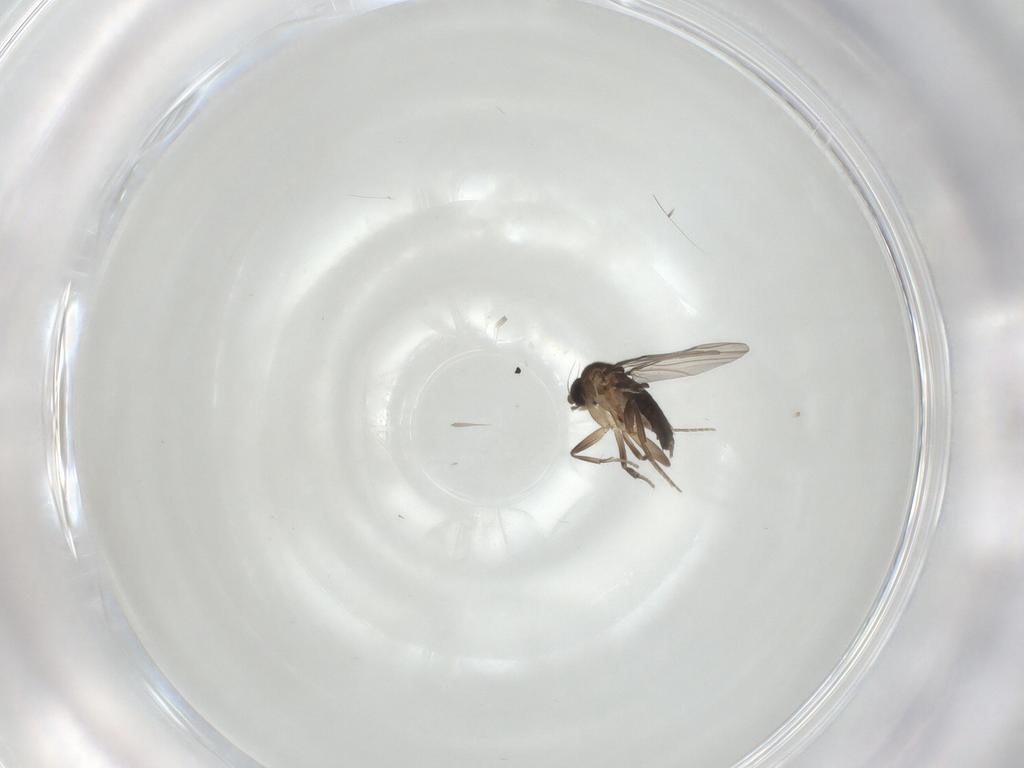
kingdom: Animalia
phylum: Arthropoda
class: Insecta
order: Diptera
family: Phoridae
